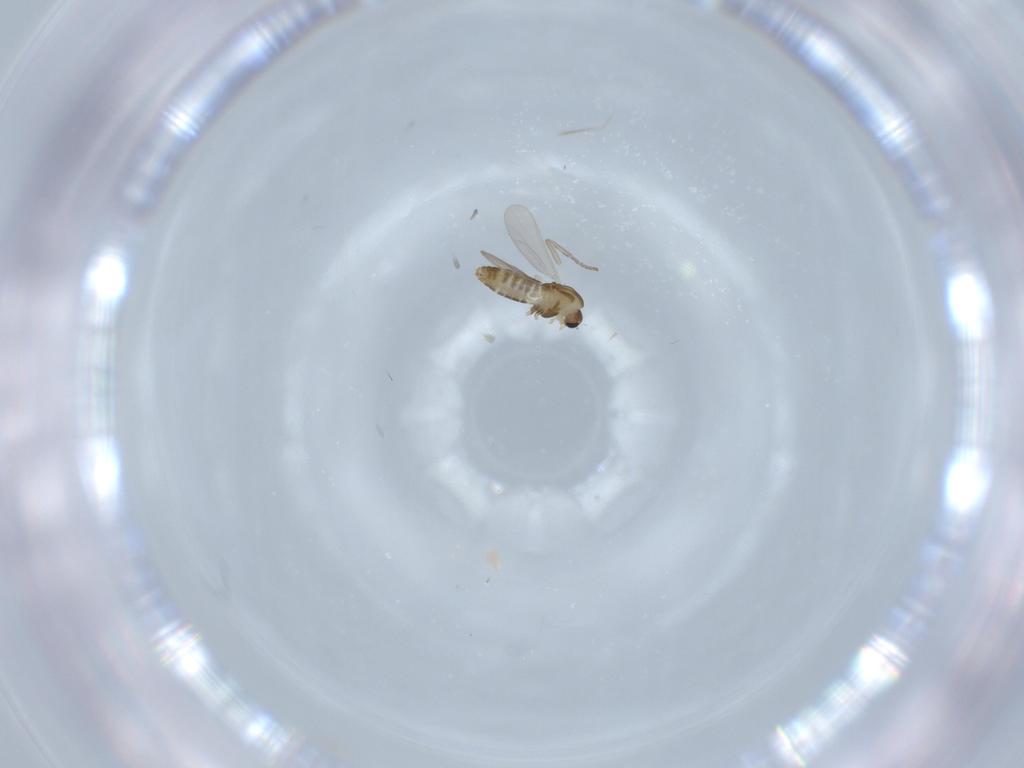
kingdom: Animalia
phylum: Arthropoda
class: Insecta
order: Diptera
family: Chironomidae
